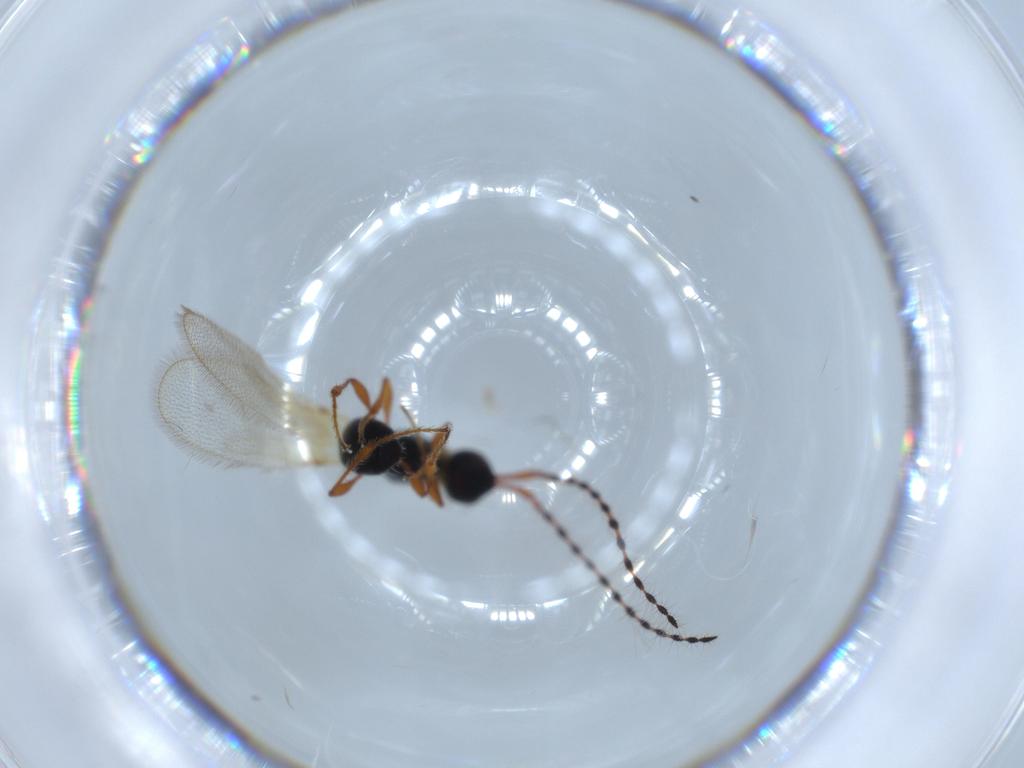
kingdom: Animalia
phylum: Arthropoda
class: Insecta
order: Hymenoptera
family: Diapriidae
